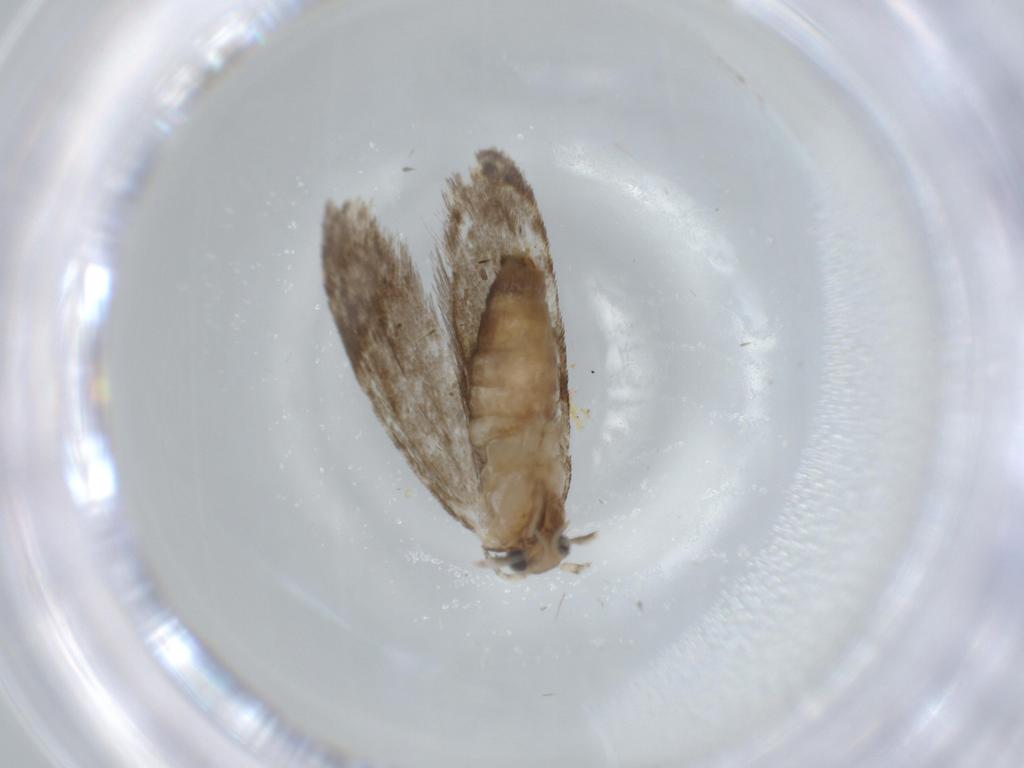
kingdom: Animalia
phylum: Arthropoda
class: Insecta
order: Lepidoptera
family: Tineidae
